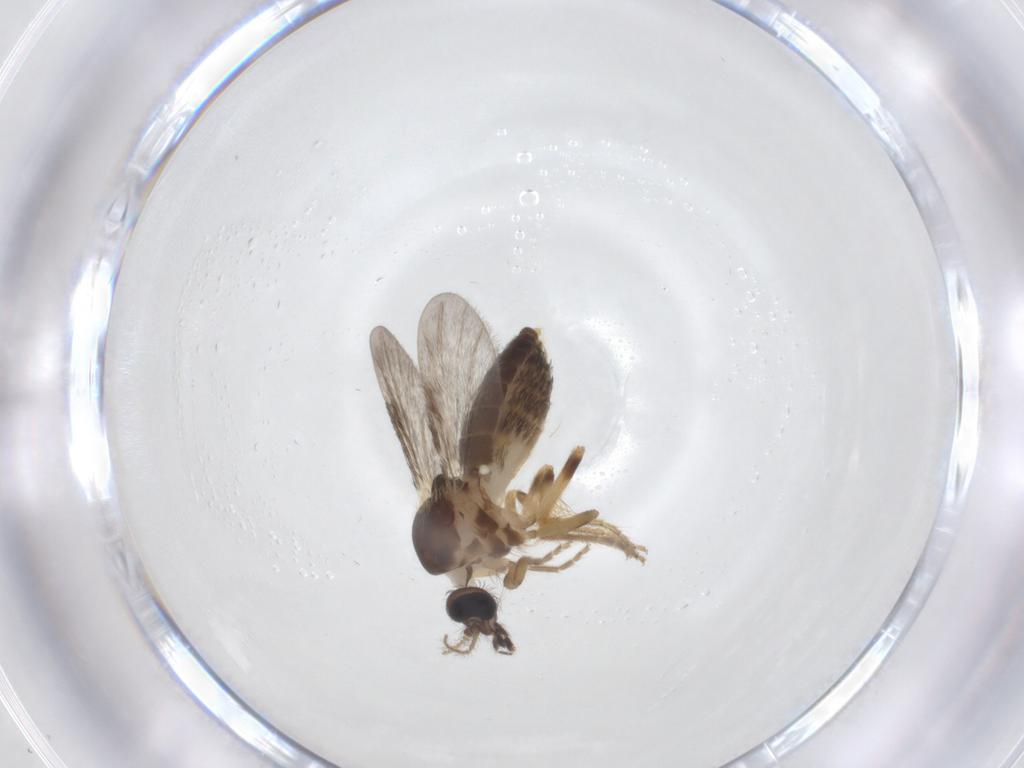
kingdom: Animalia
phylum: Arthropoda
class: Insecta
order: Diptera
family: Ceratopogonidae
